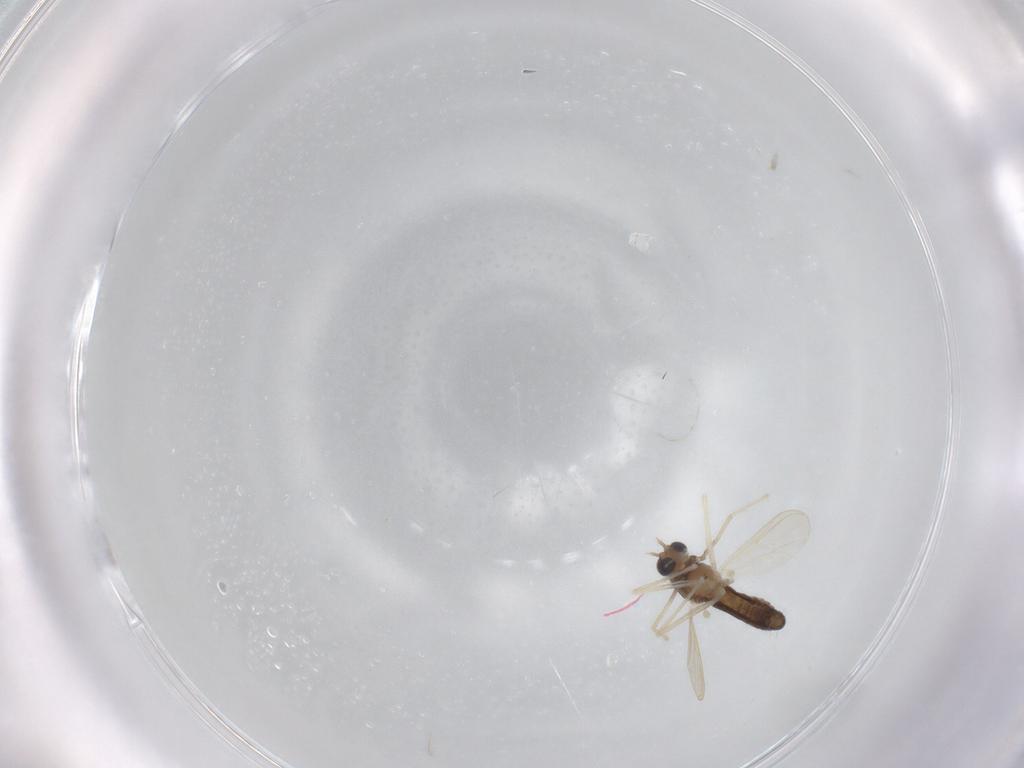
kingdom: Animalia
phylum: Arthropoda
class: Insecta
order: Diptera
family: Chironomidae
